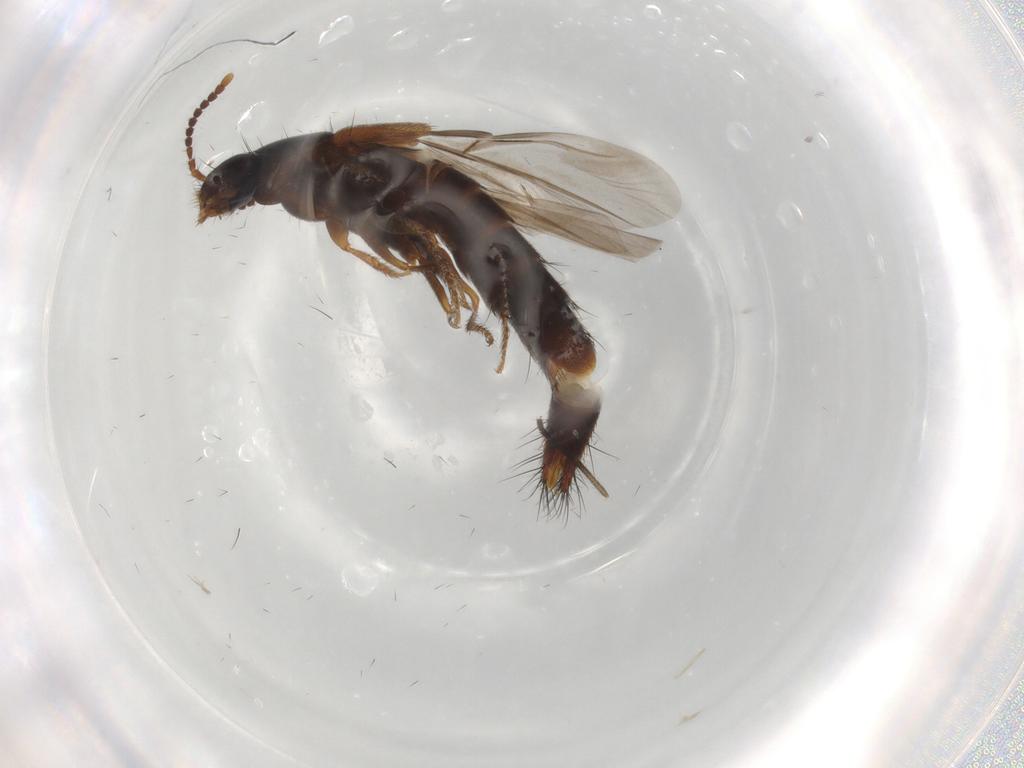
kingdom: Animalia
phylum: Arthropoda
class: Insecta
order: Coleoptera
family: Staphylinidae
